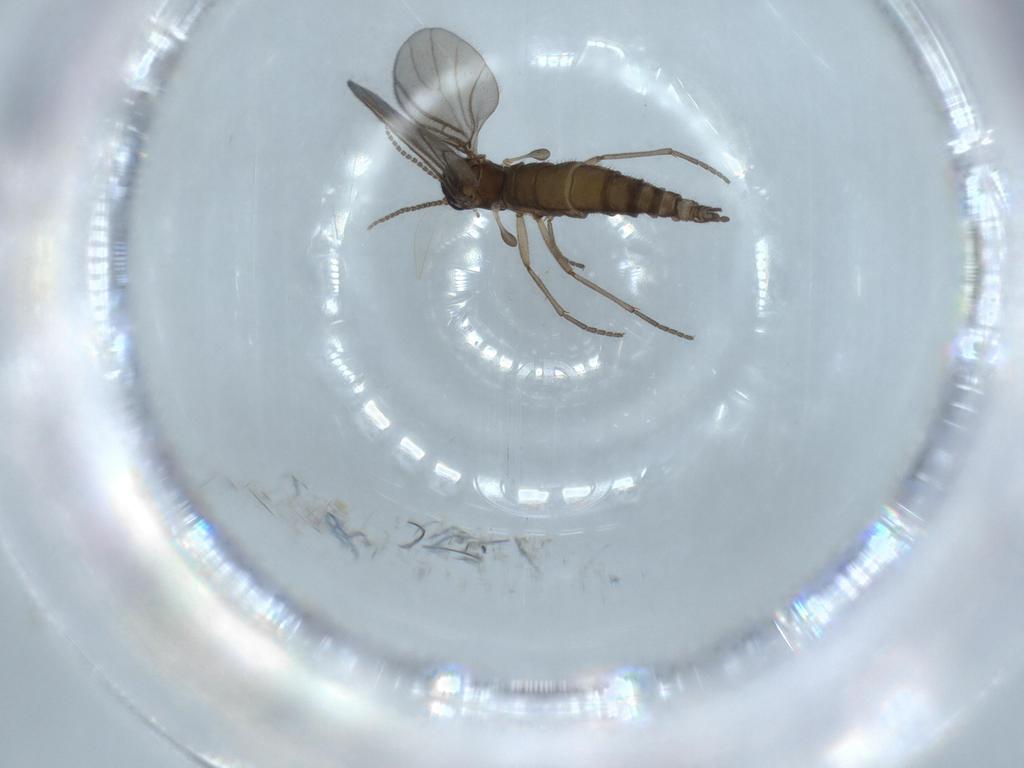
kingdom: Animalia
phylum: Arthropoda
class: Insecta
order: Diptera
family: Sciaridae
